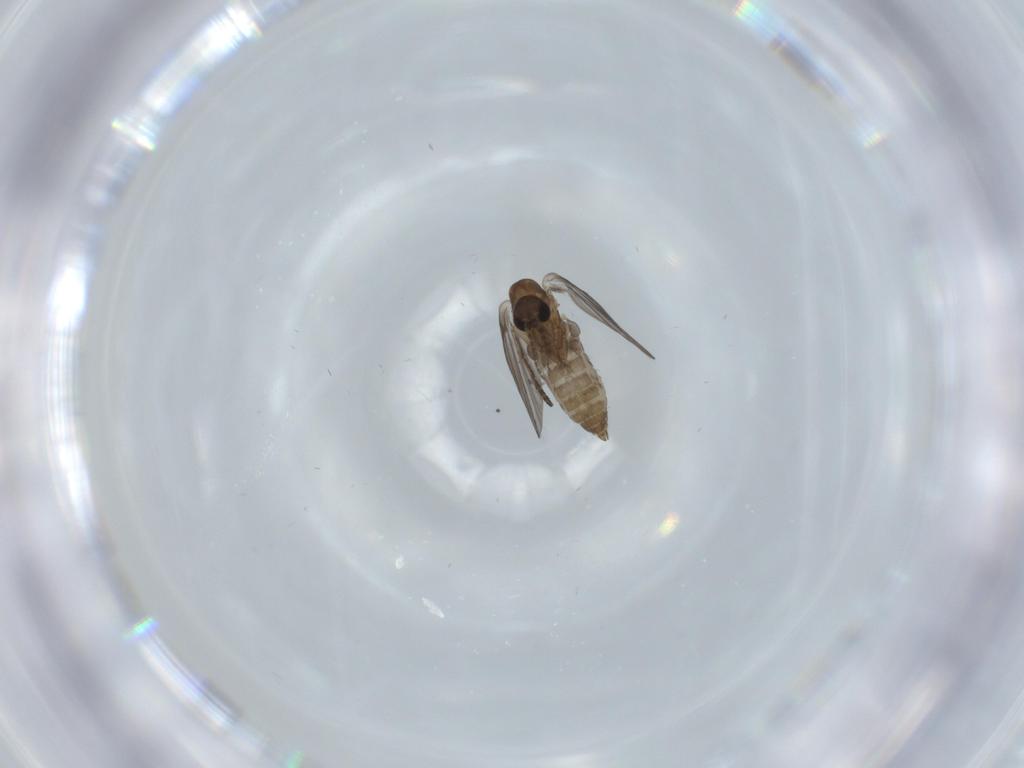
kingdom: Animalia
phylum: Arthropoda
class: Insecta
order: Diptera
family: Psychodidae
